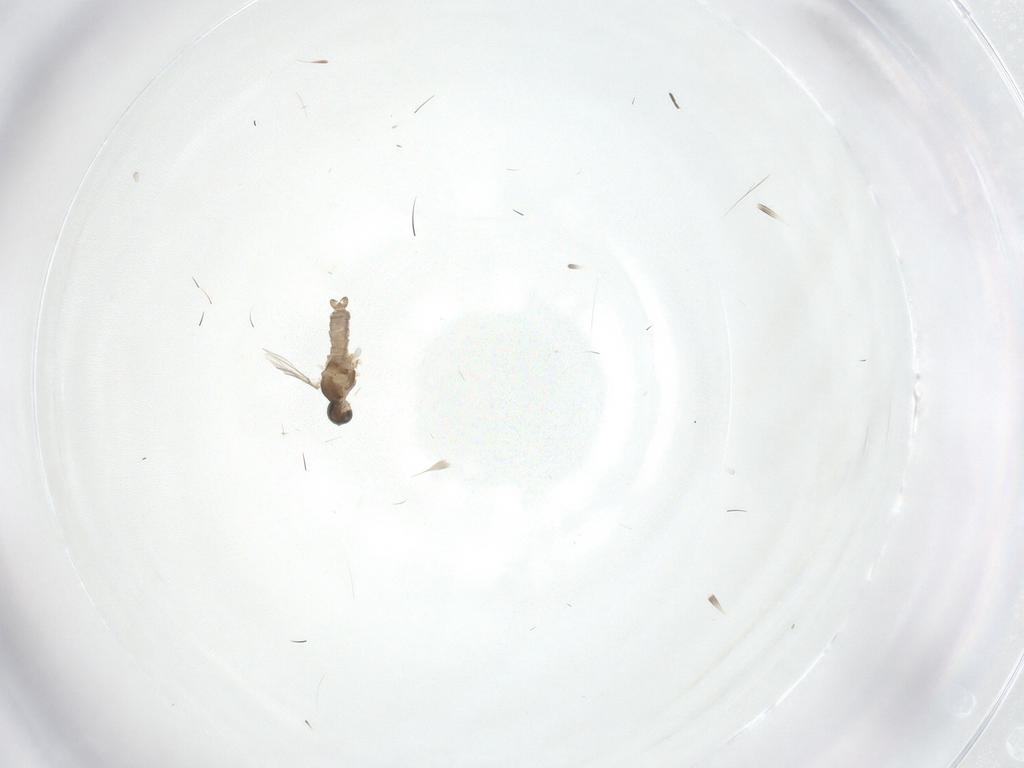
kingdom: Animalia
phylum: Arthropoda
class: Insecta
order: Diptera
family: Cecidomyiidae
